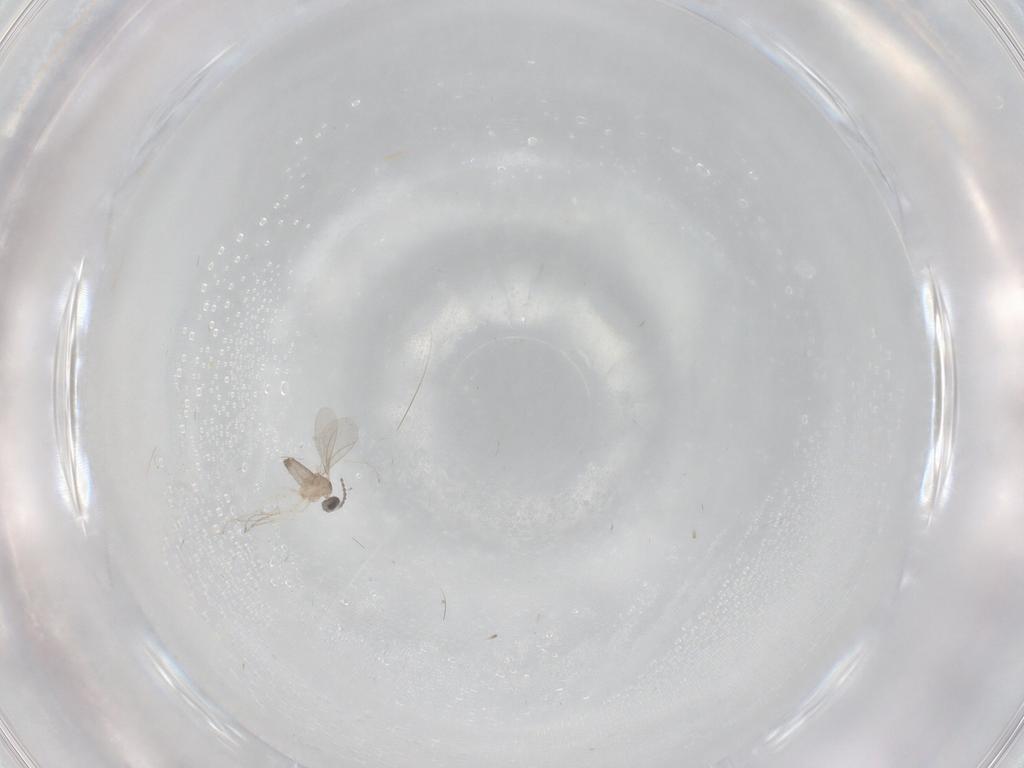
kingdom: Animalia
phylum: Arthropoda
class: Insecta
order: Diptera
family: Cecidomyiidae
